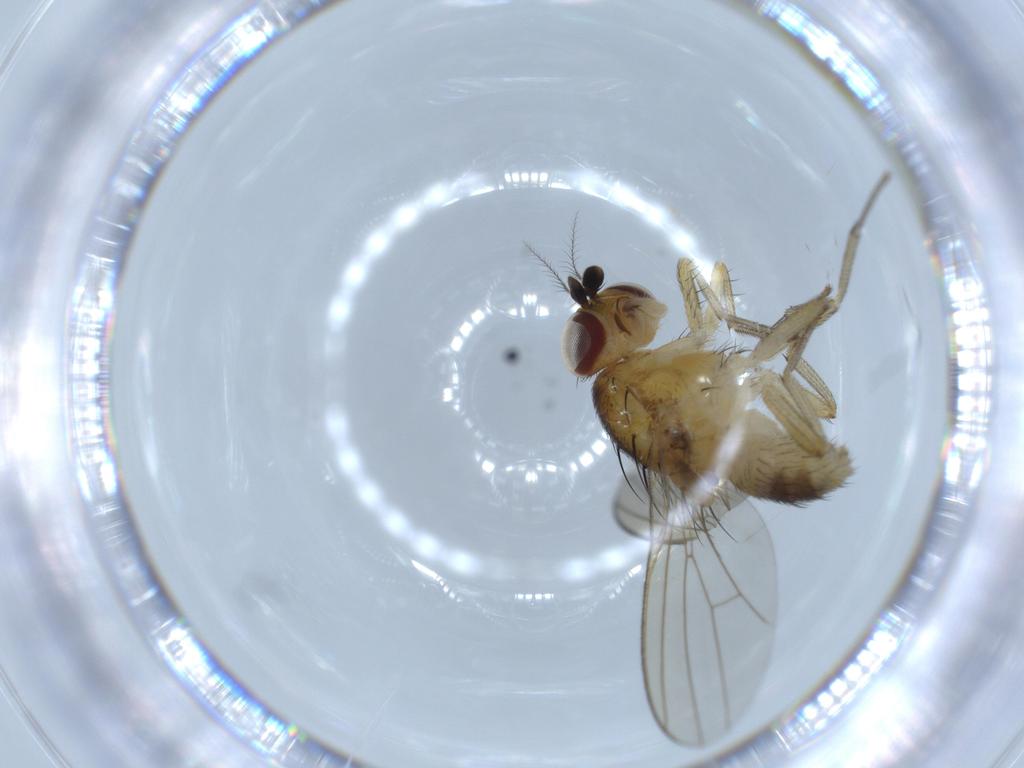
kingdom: Animalia
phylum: Arthropoda
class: Insecta
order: Diptera
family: Lauxaniidae
